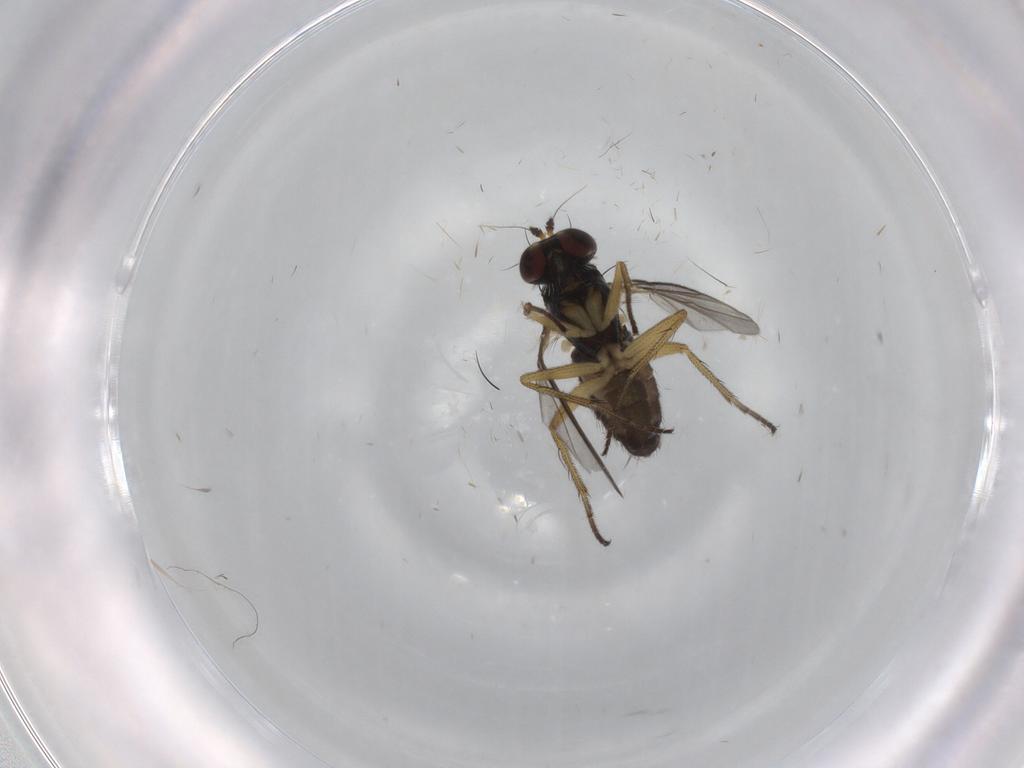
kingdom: Animalia
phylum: Arthropoda
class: Insecta
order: Diptera
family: Dolichopodidae
